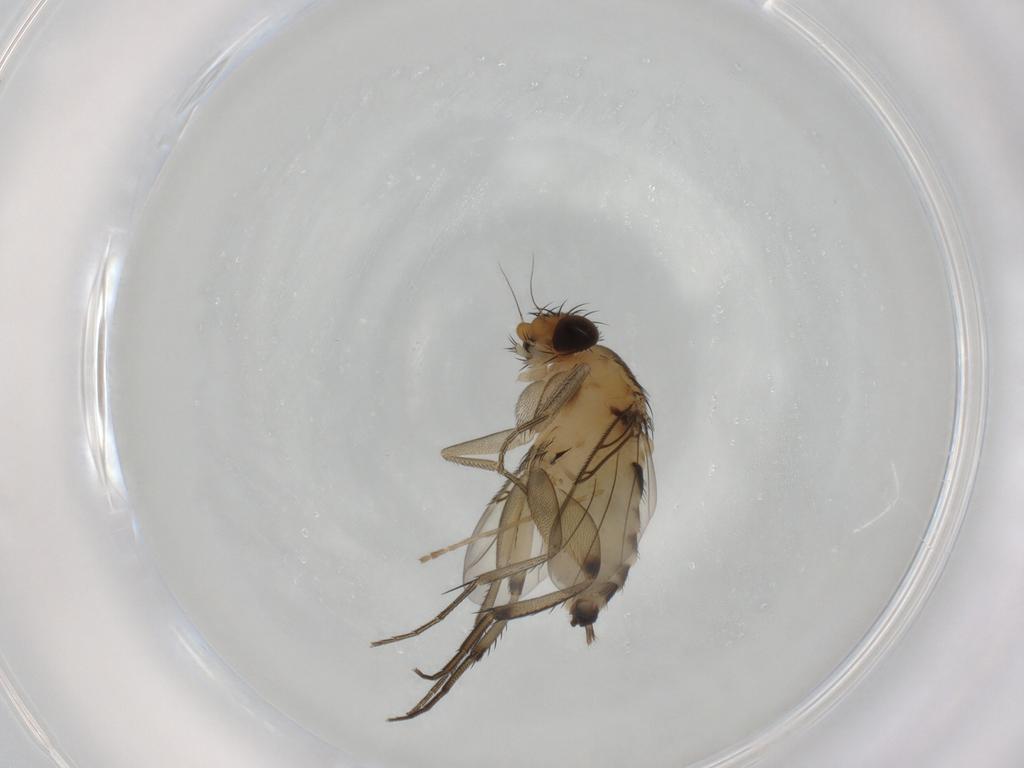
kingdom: Animalia
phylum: Arthropoda
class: Insecta
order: Diptera
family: Phoridae
